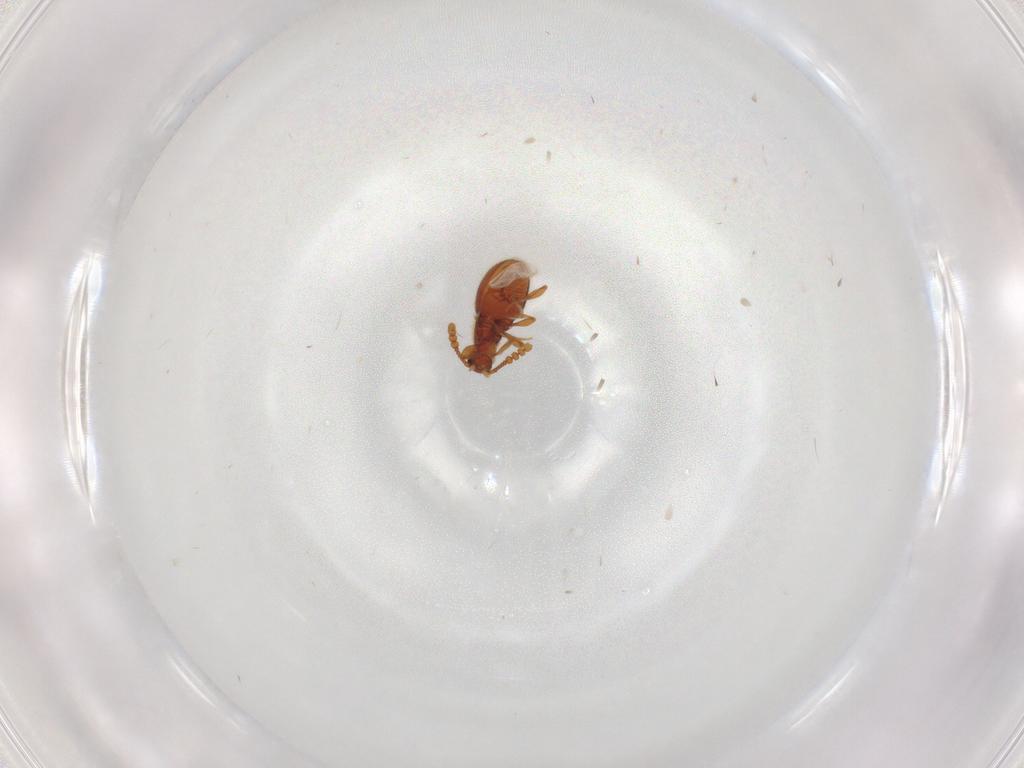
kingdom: Animalia
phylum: Arthropoda
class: Insecta
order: Coleoptera
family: Staphylinidae
